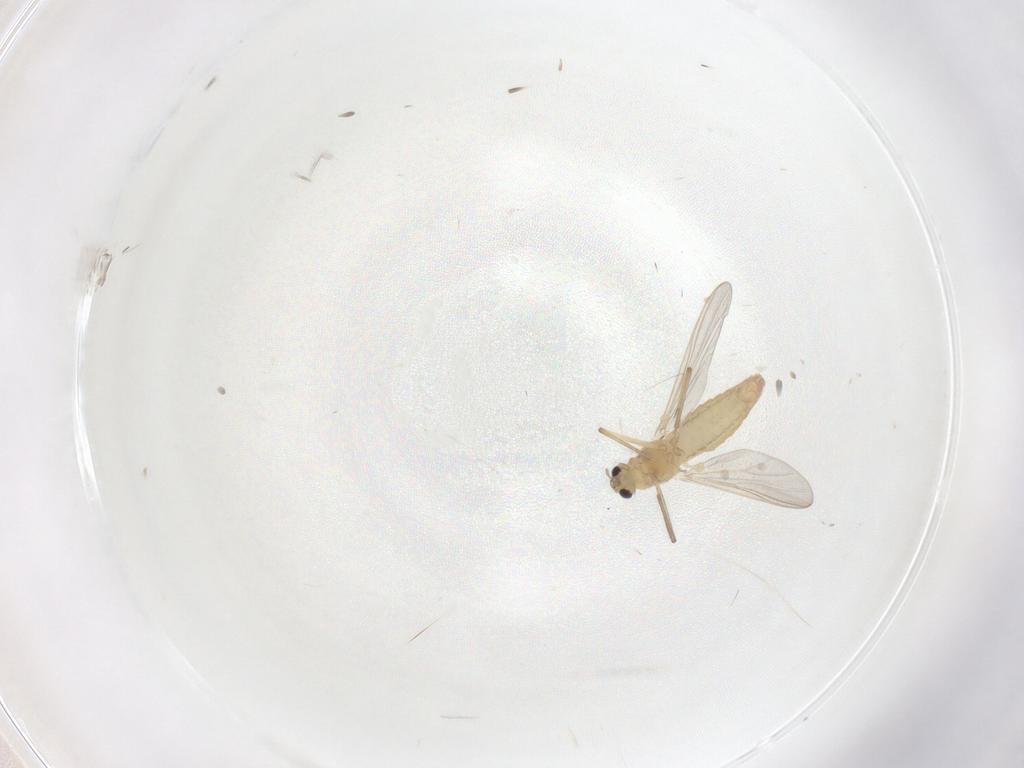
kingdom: Animalia
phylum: Arthropoda
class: Insecta
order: Diptera
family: Chironomidae
